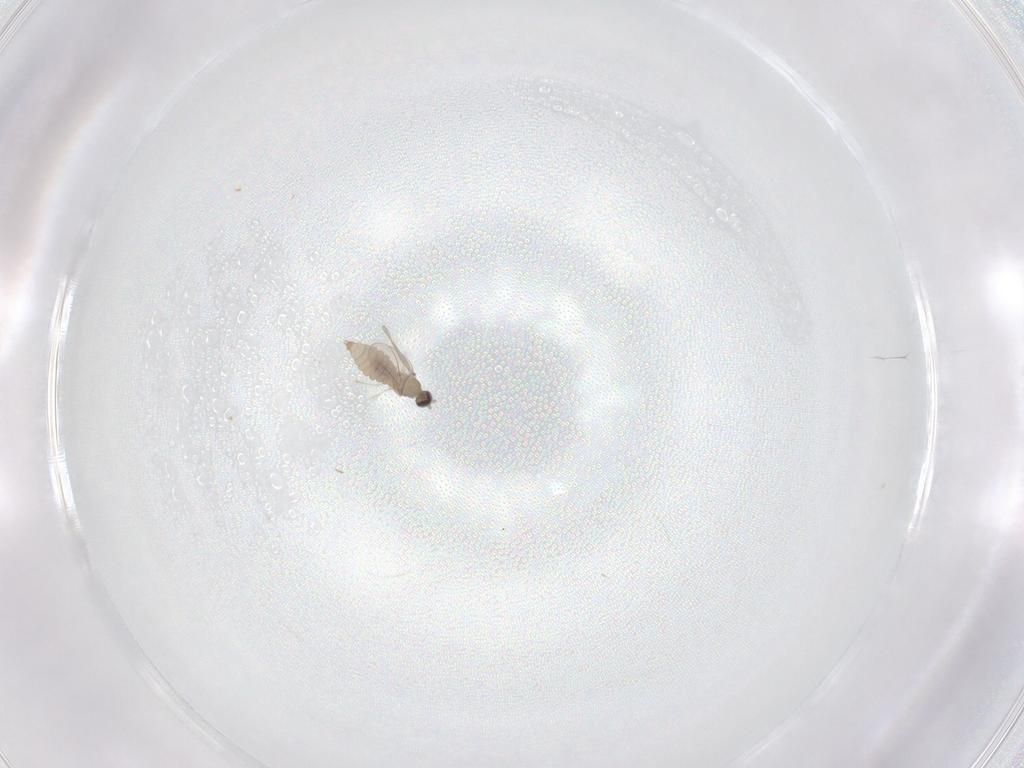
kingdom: Animalia
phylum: Arthropoda
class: Insecta
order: Diptera
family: Cecidomyiidae
